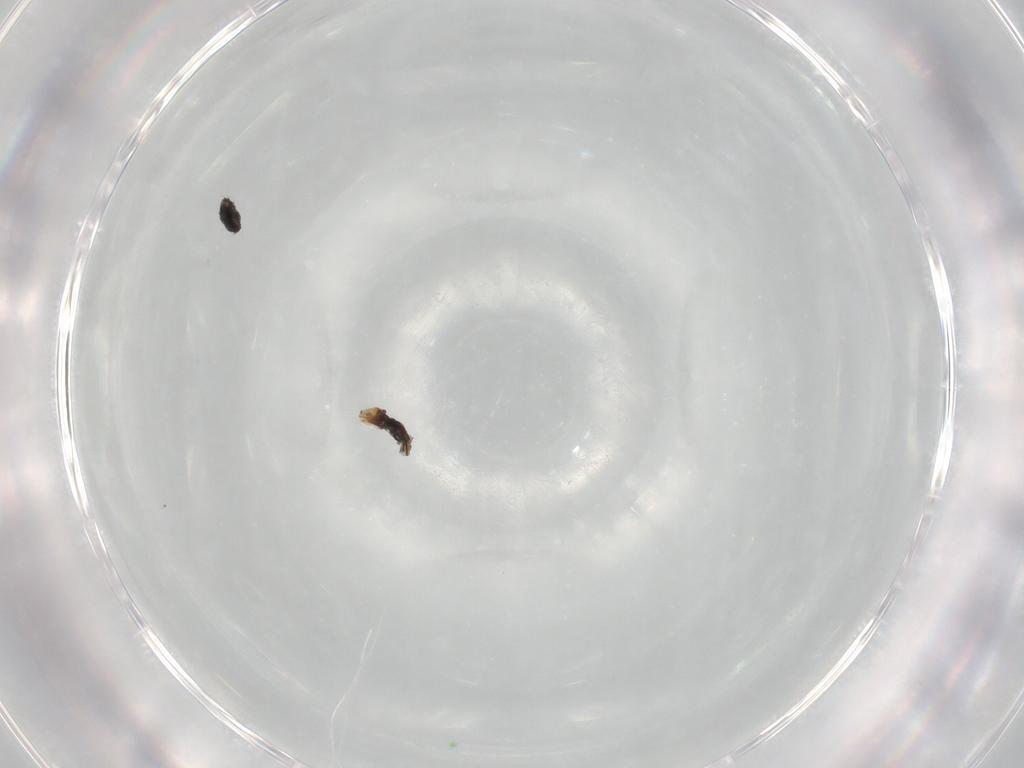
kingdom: Animalia
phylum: Arthropoda
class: Insecta
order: Hymenoptera
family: Mymaridae
